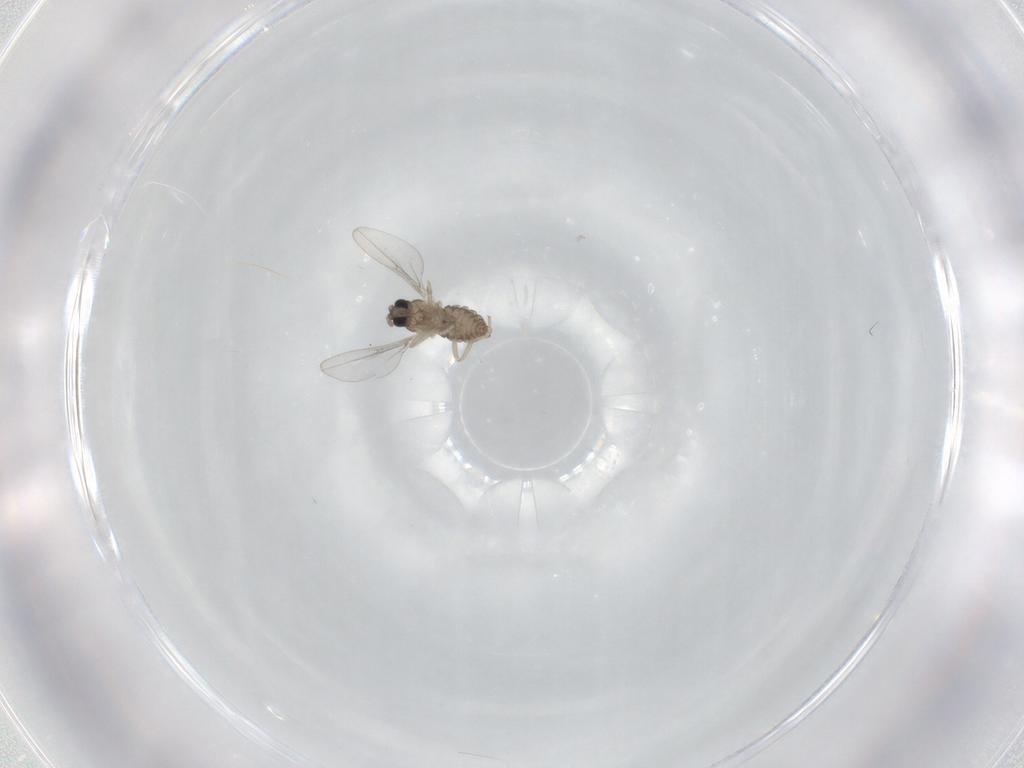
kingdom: Animalia
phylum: Arthropoda
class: Insecta
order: Diptera
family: Cecidomyiidae
